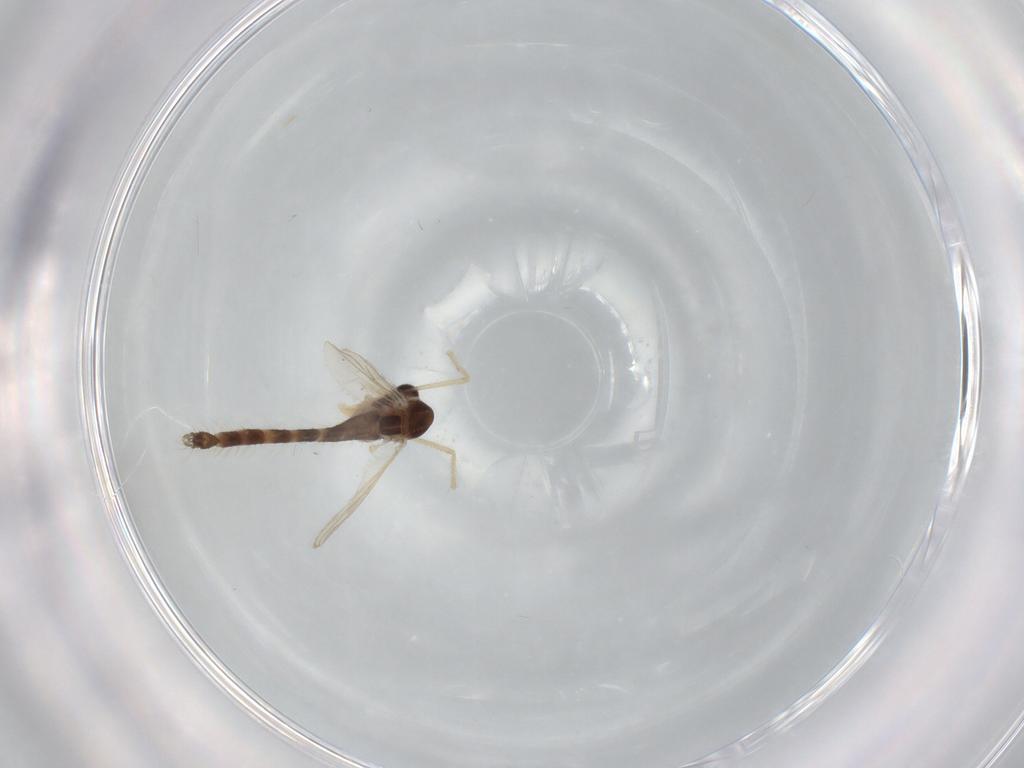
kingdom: Animalia
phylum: Arthropoda
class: Insecta
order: Diptera
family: Chironomidae
